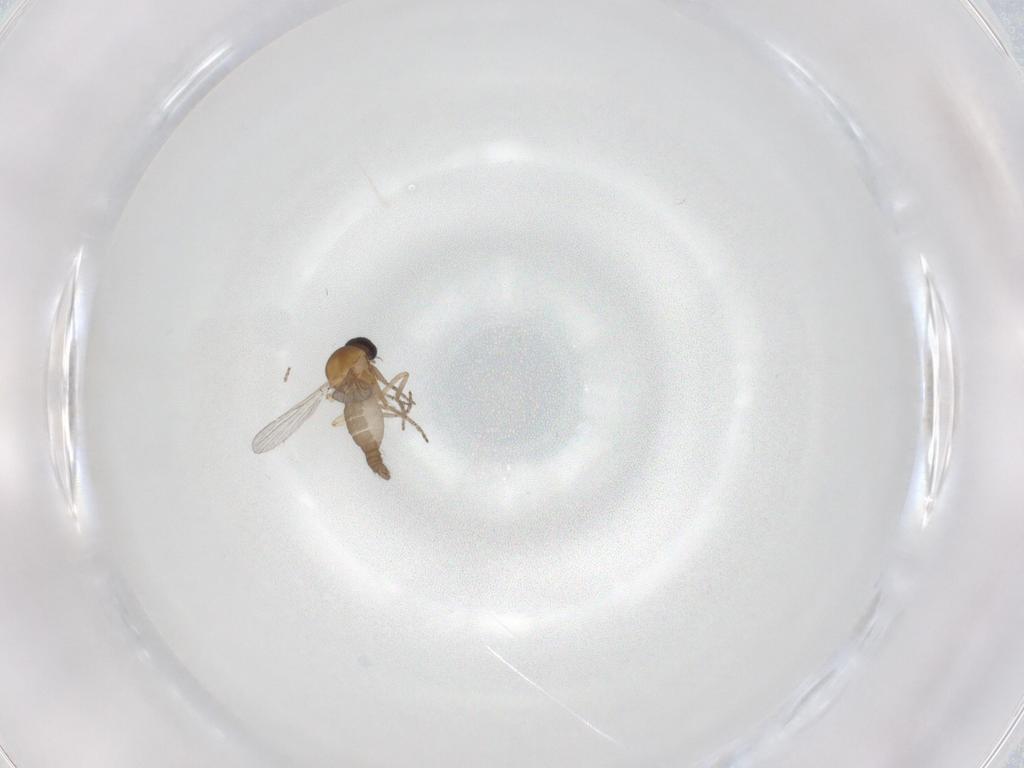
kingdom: Animalia
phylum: Arthropoda
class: Insecta
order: Diptera
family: Ceratopogonidae
